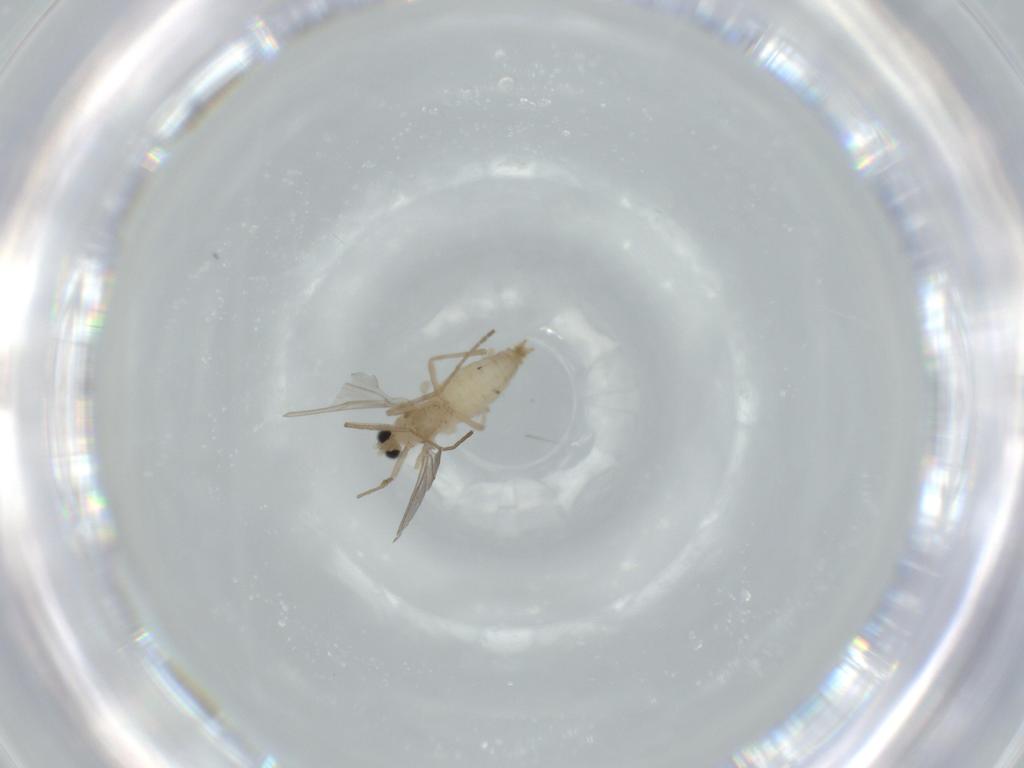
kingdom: Animalia
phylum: Arthropoda
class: Insecta
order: Diptera
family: Cecidomyiidae
